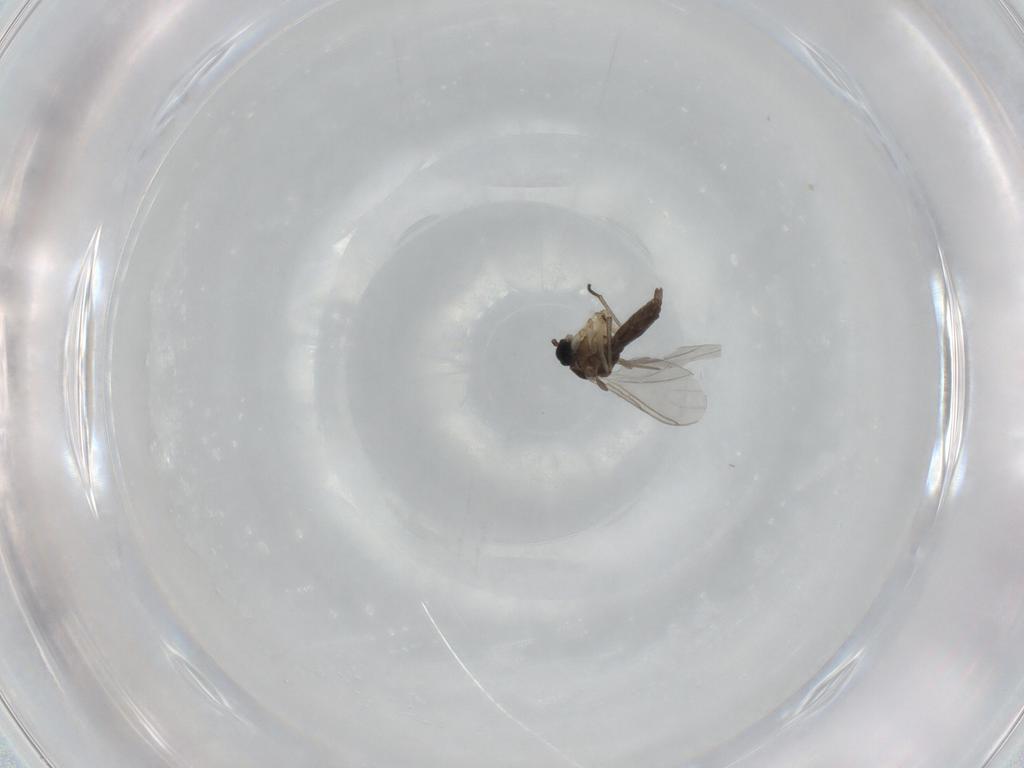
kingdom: Animalia
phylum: Arthropoda
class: Insecta
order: Diptera
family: Sciaridae
